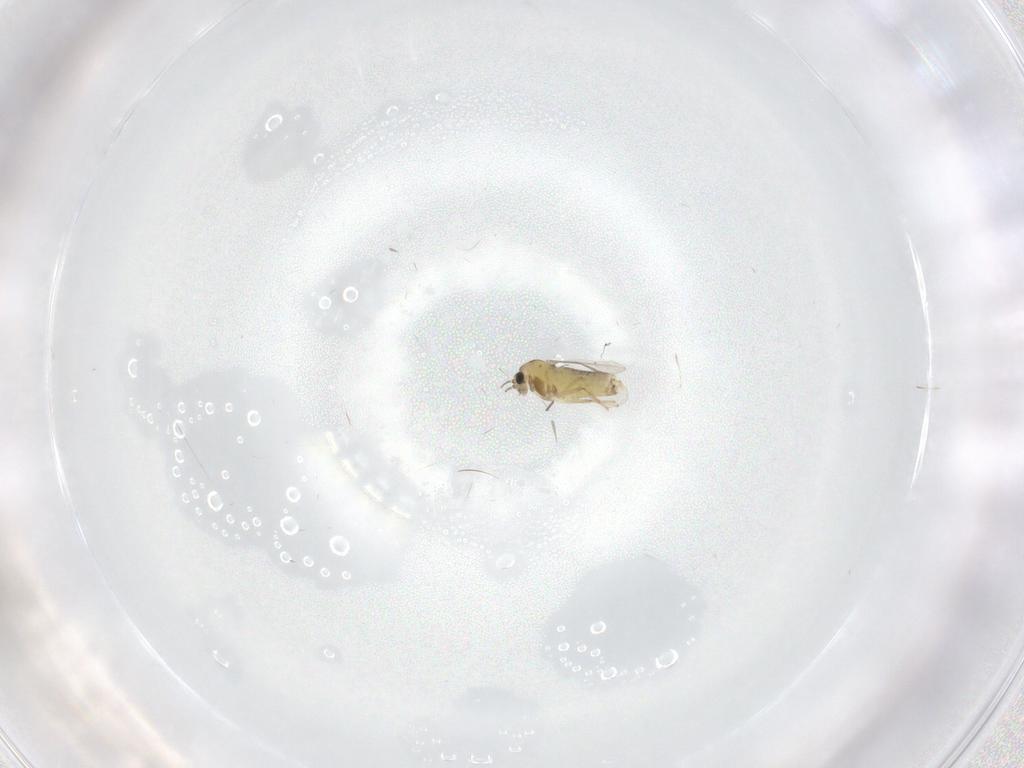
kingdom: Animalia
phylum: Arthropoda
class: Insecta
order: Diptera
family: Chironomidae
